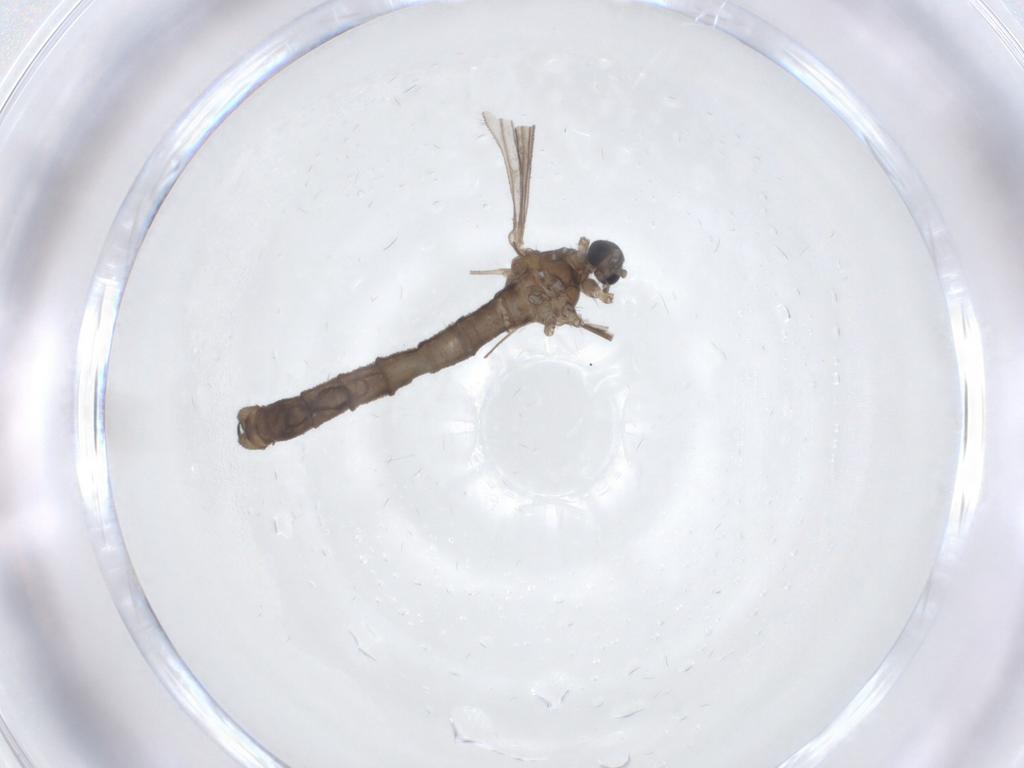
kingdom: Animalia
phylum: Arthropoda
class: Insecta
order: Diptera
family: Limoniidae
